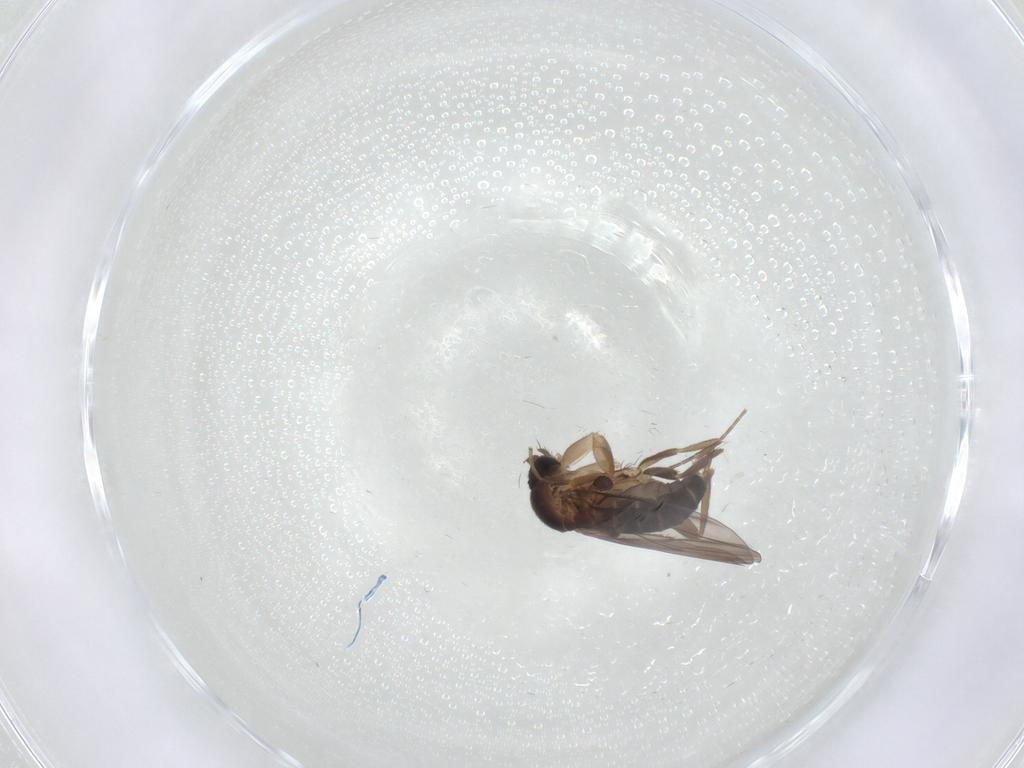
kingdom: Animalia
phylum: Arthropoda
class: Insecta
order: Diptera
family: Phoridae
